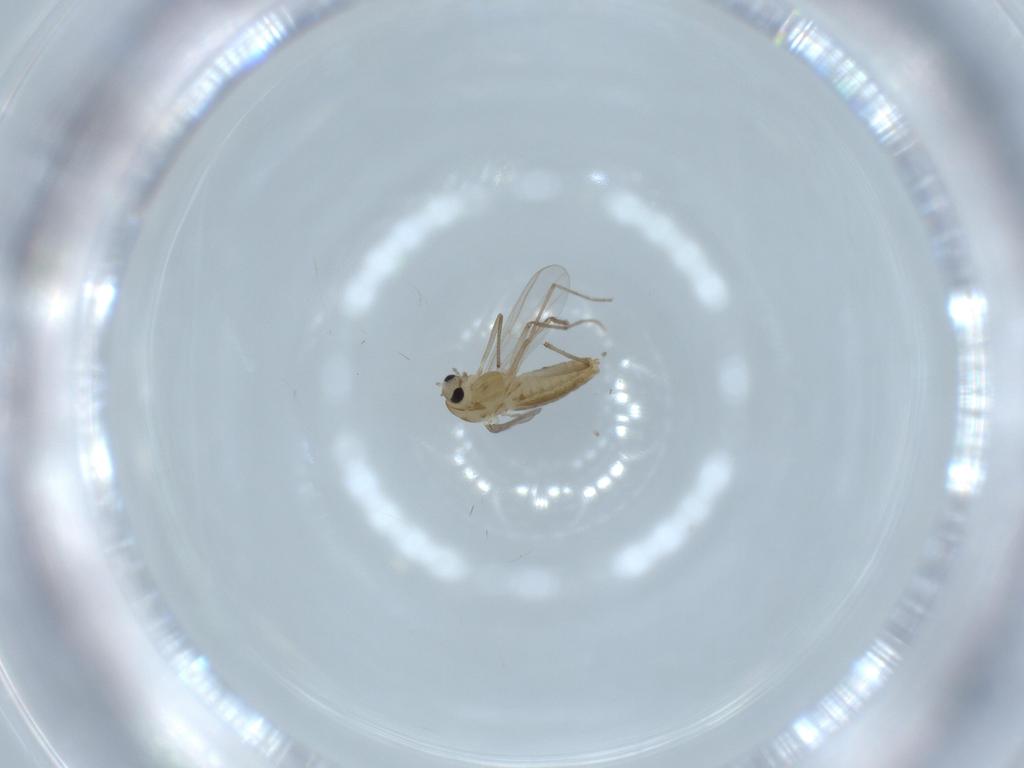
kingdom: Animalia
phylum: Arthropoda
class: Insecta
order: Diptera
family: Chironomidae
